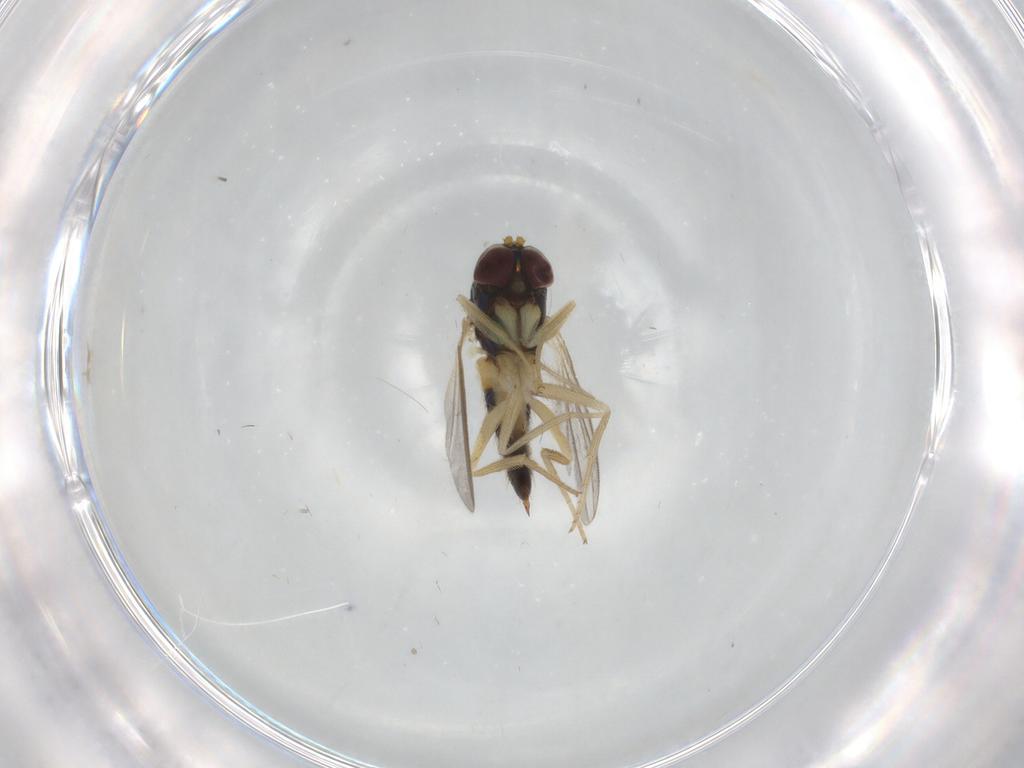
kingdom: Animalia
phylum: Arthropoda
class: Insecta
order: Diptera
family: Dolichopodidae
